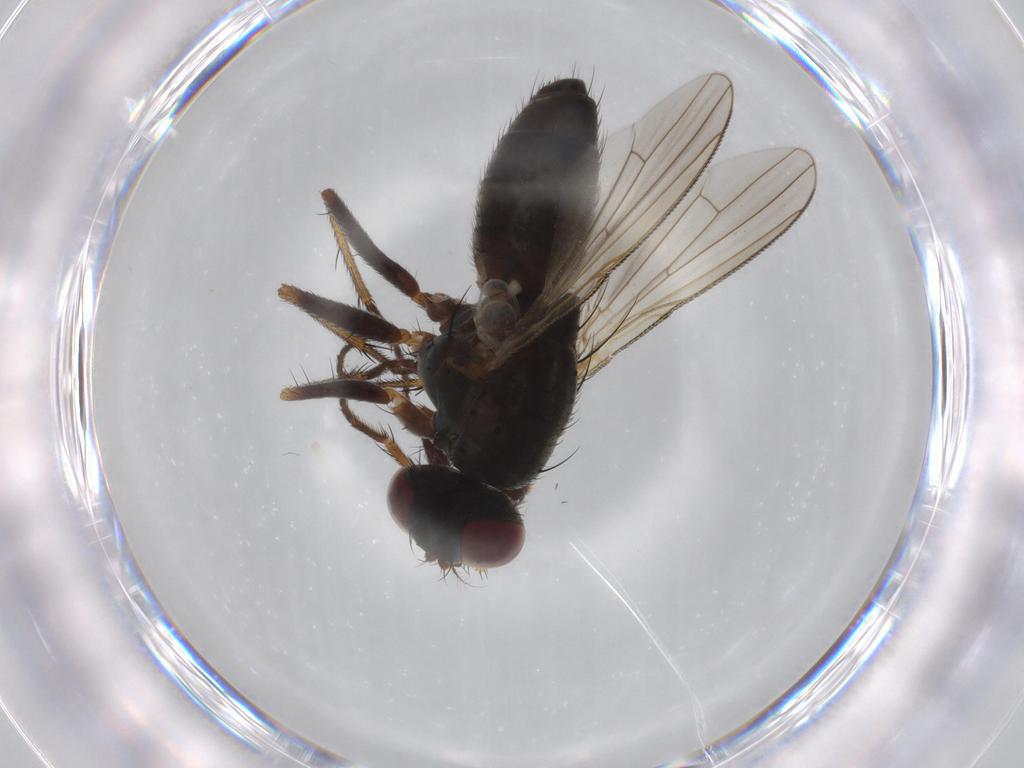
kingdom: Animalia
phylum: Arthropoda
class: Insecta
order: Diptera
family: Muscidae
